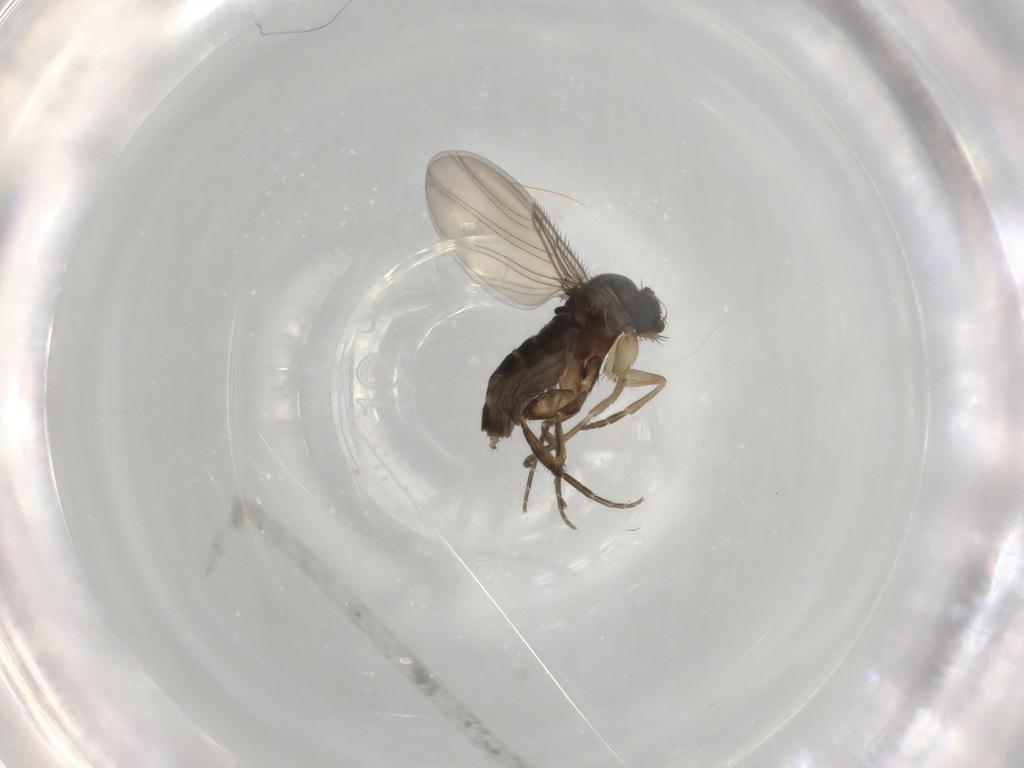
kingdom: Animalia
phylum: Arthropoda
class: Insecta
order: Diptera
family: Phoridae
